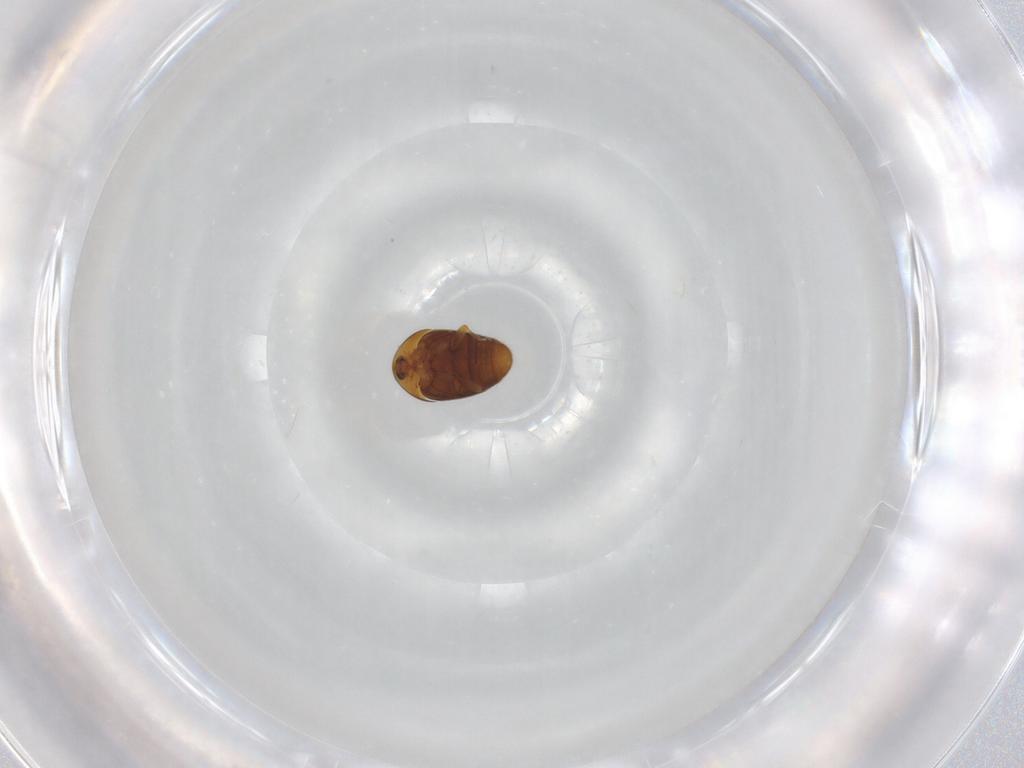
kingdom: Animalia
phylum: Arthropoda
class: Insecta
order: Coleoptera
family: Corylophidae
